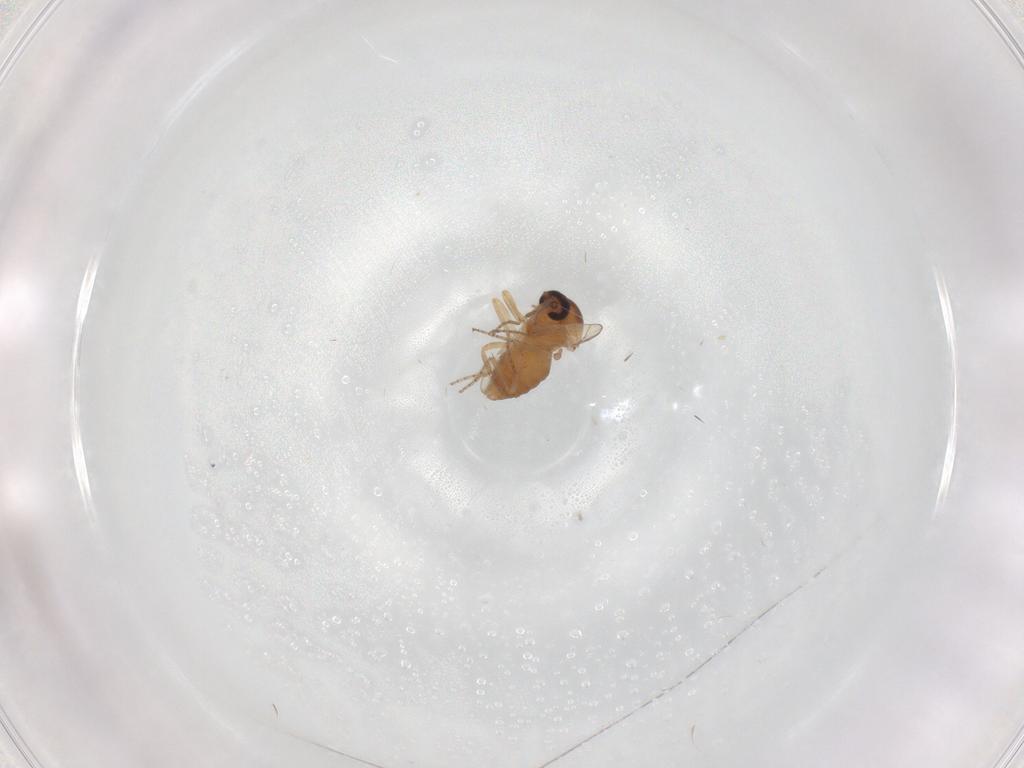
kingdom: Animalia
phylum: Arthropoda
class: Insecta
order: Diptera
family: Ceratopogonidae
